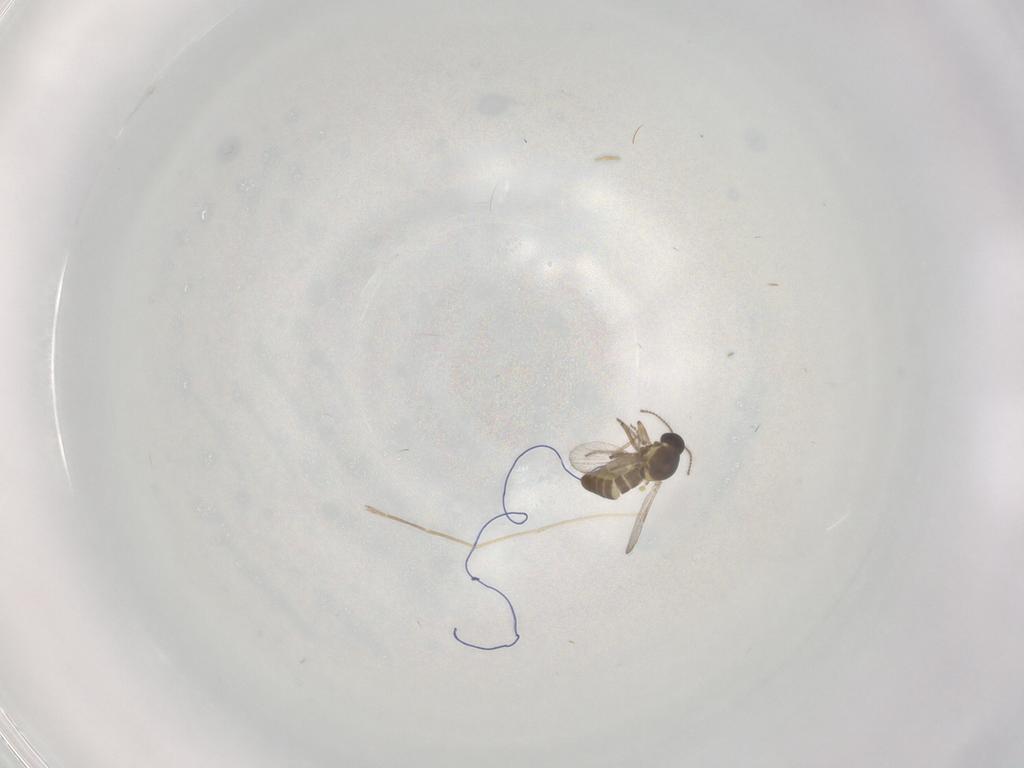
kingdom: Animalia
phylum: Arthropoda
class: Insecta
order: Diptera
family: Ceratopogonidae
